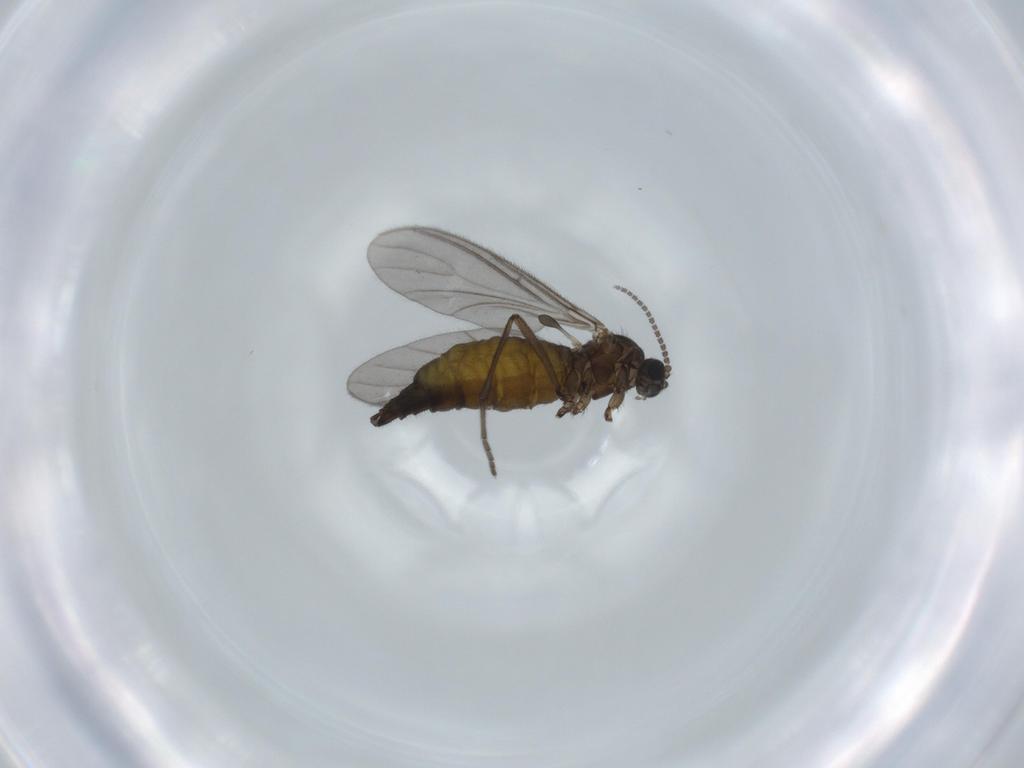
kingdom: Animalia
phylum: Arthropoda
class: Insecta
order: Diptera
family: Sciaridae
